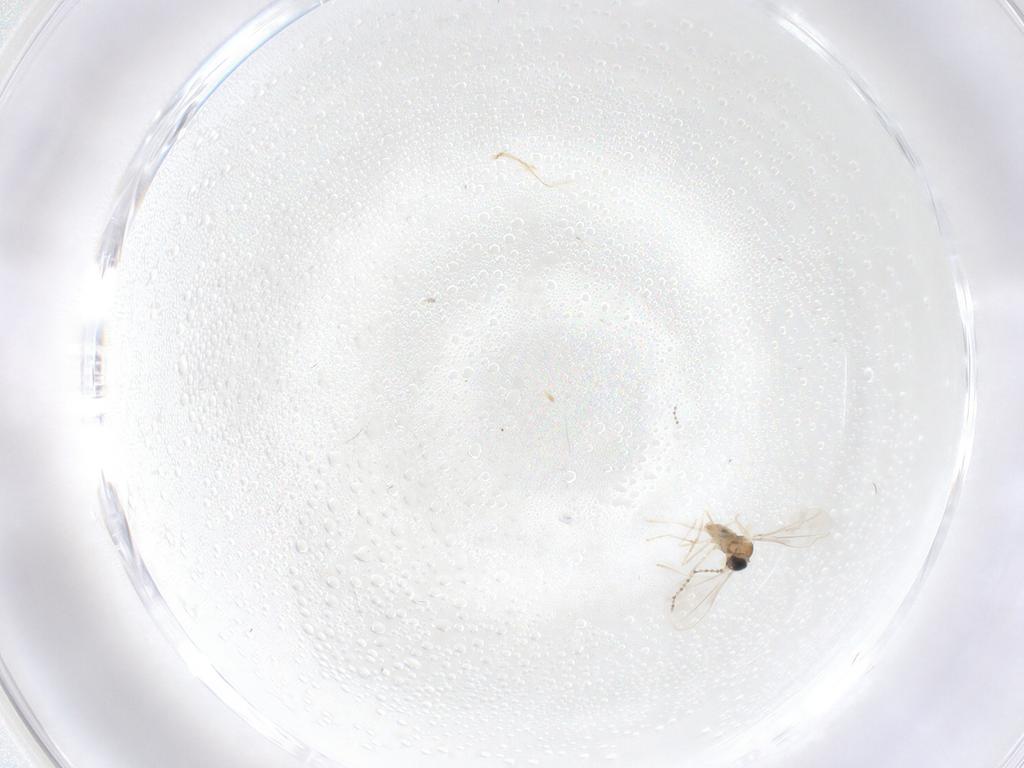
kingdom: Animalia
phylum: Arthropoda
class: Insecta
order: Diptera
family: Cecidomyiidae
